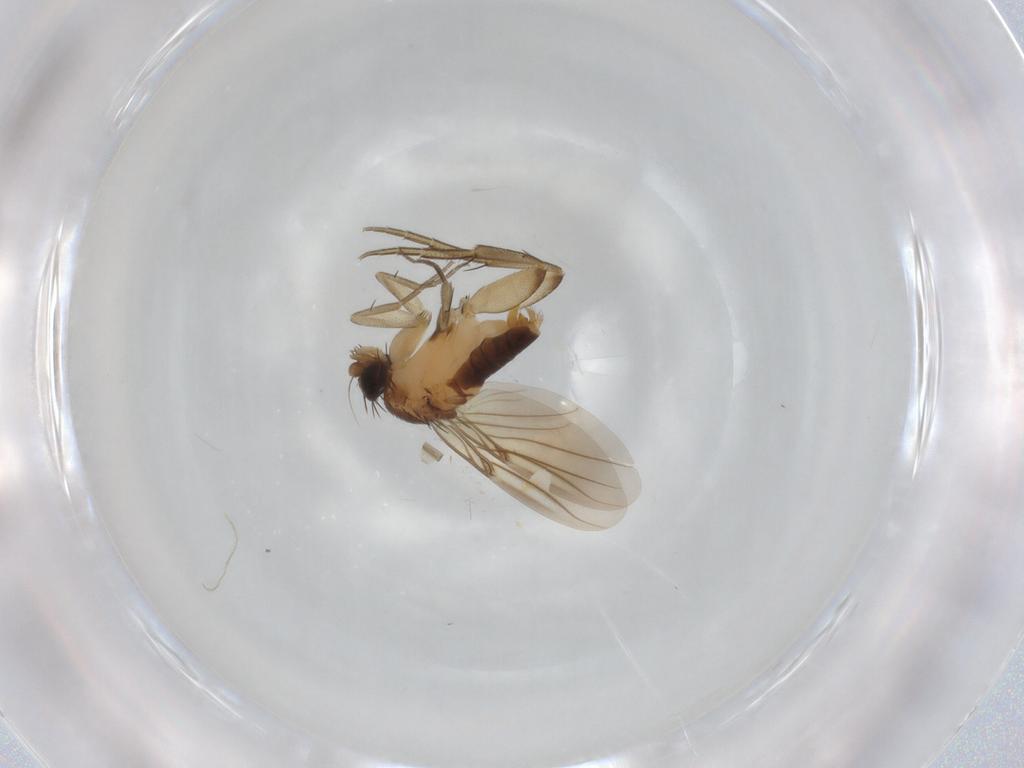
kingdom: Animalia
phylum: Arthropoda
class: Insecta
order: Diptera
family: Phoridae
